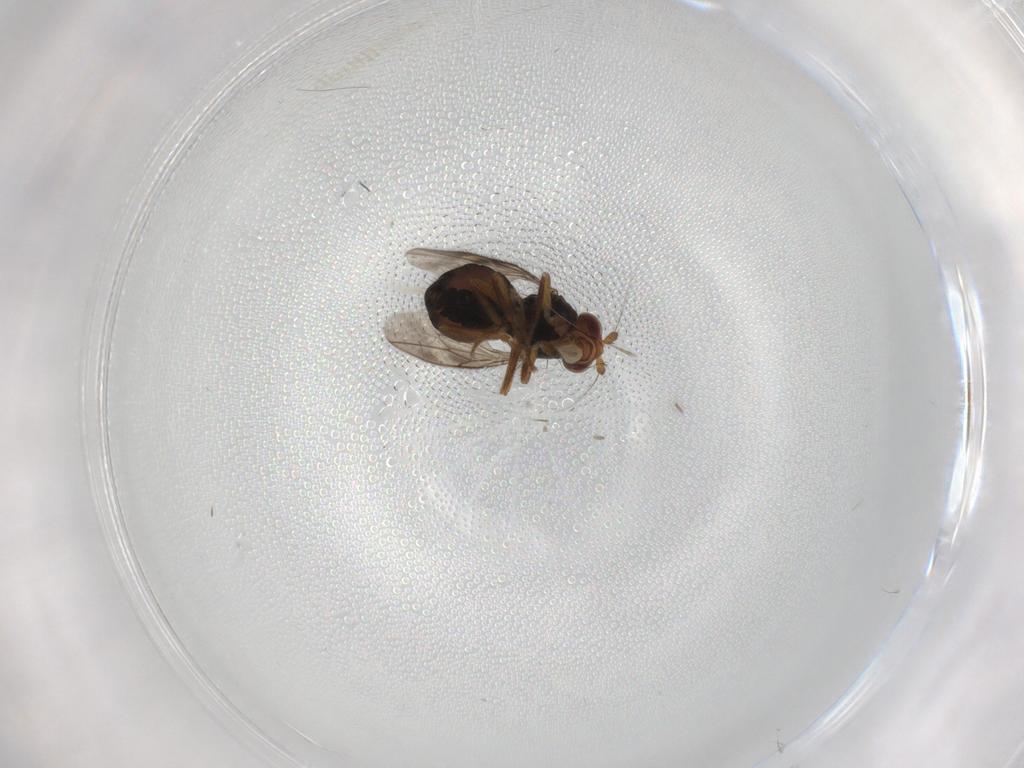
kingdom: Animalia
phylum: Arthropoda
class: Insecta
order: Diptera
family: Sphaeroceridae
